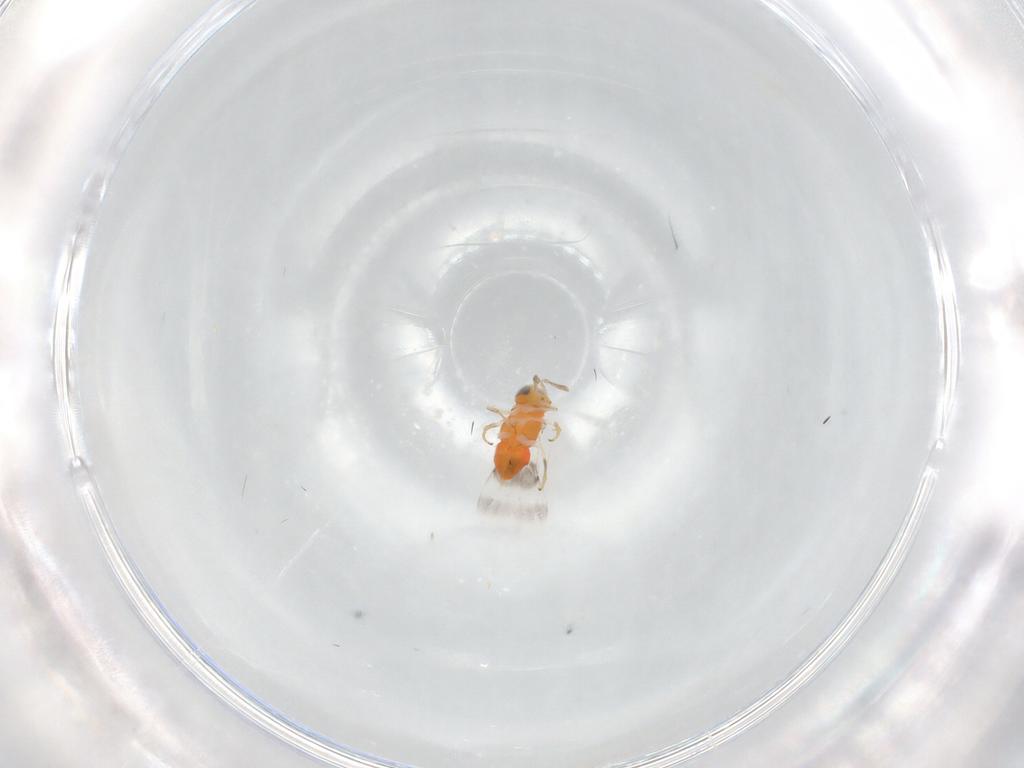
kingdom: Animalia
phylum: Arthropoda
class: Insecta
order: Hymenoptera
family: Encyrtidae
